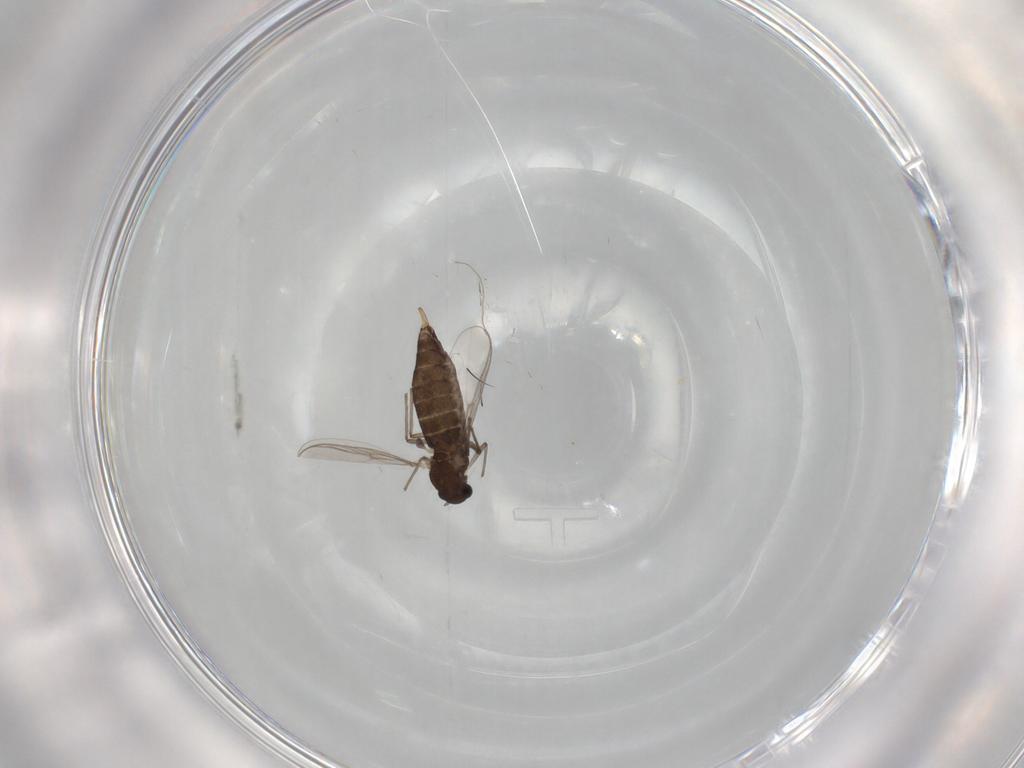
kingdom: Animalia
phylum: Arthropoda
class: Insecta
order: Diptera
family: Chironomidae
